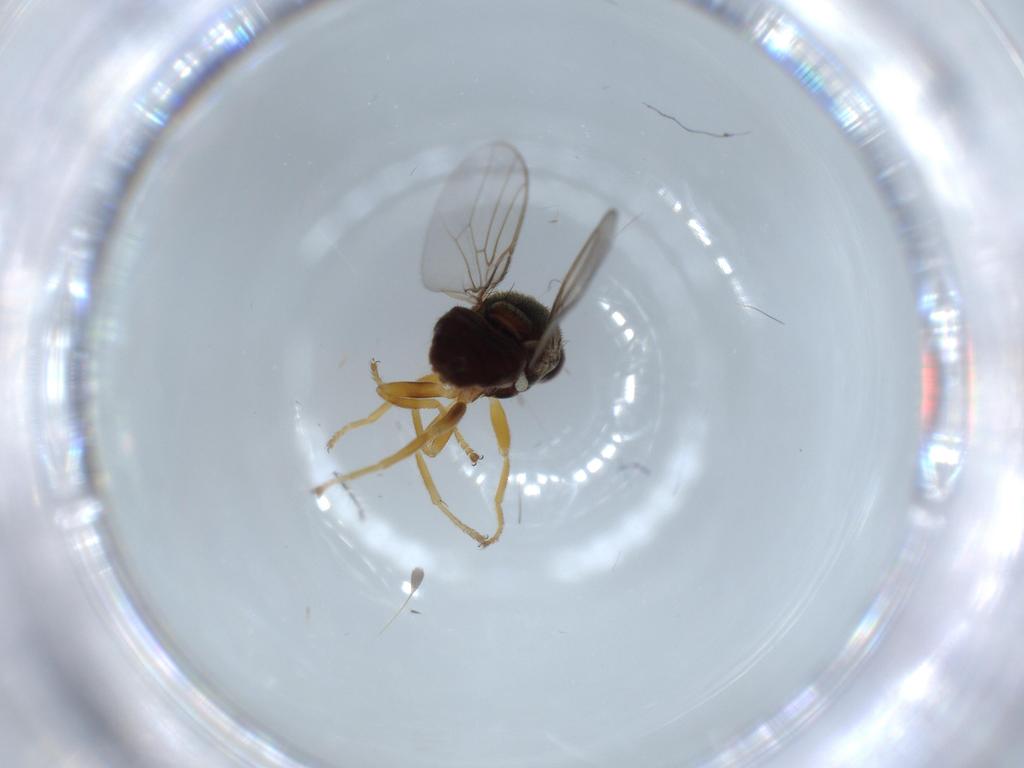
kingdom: Animalia
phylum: Arthropoda
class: Insecta
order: Diptera
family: Chloropidae
